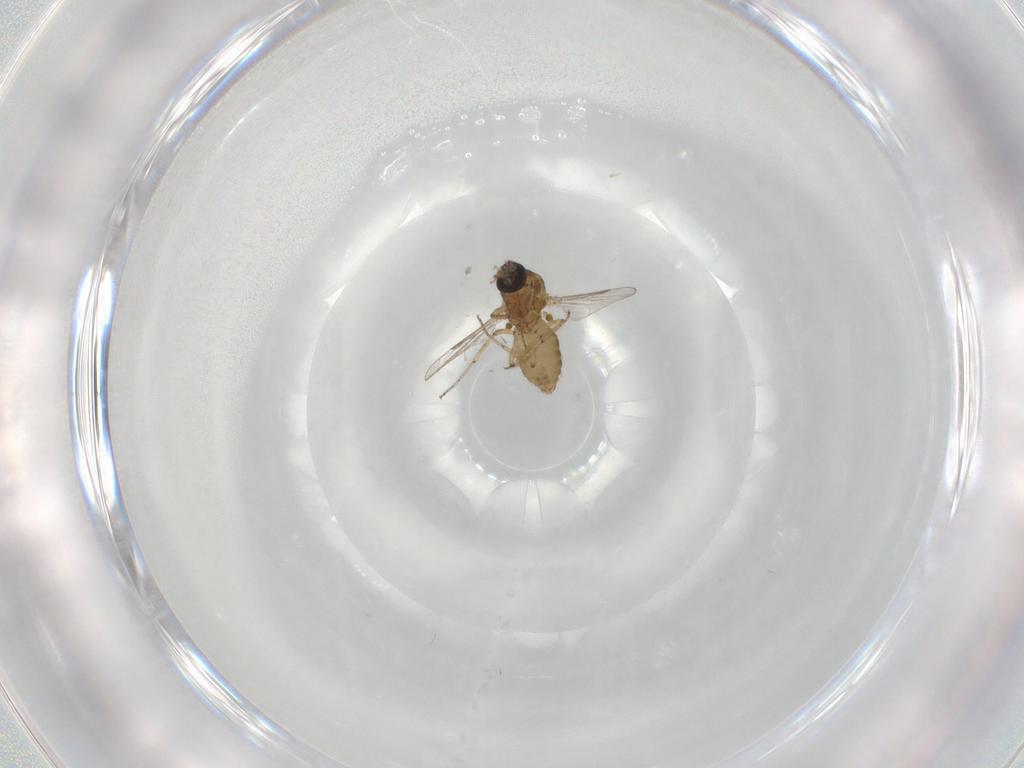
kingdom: Animalia
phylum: Arthropoda
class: Insecta
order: Diptera
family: Ceratopogonidae
